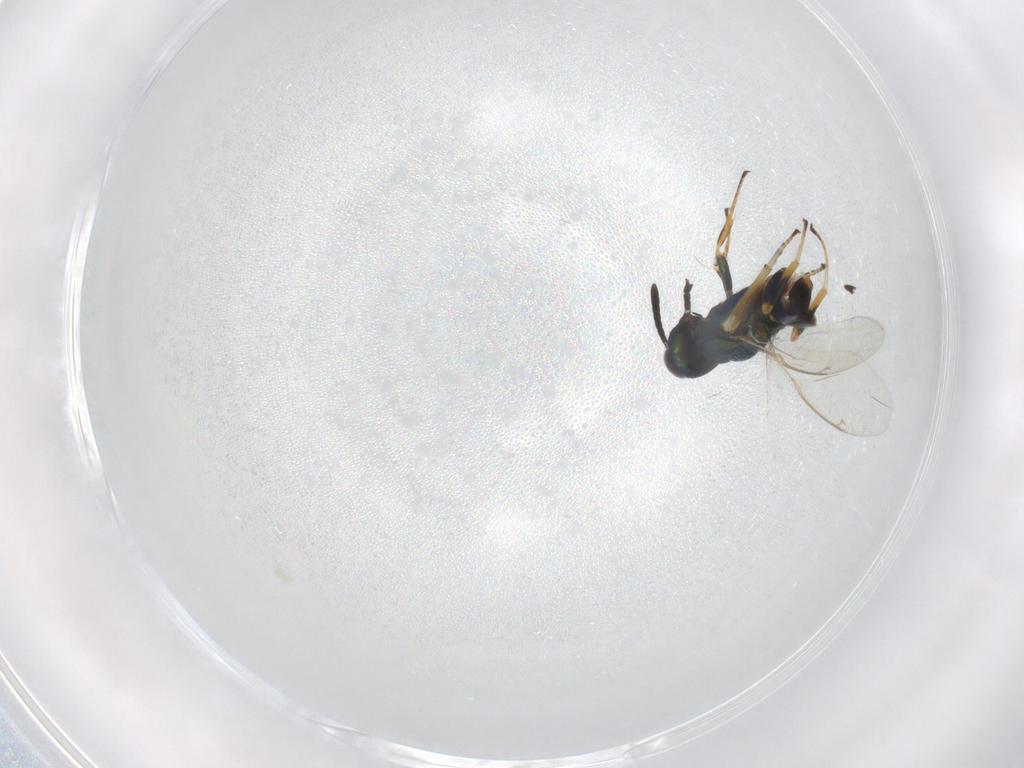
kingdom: Animalia
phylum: Arthropoda
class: Insecta
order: Hymenoptera
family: Eupelmidae
